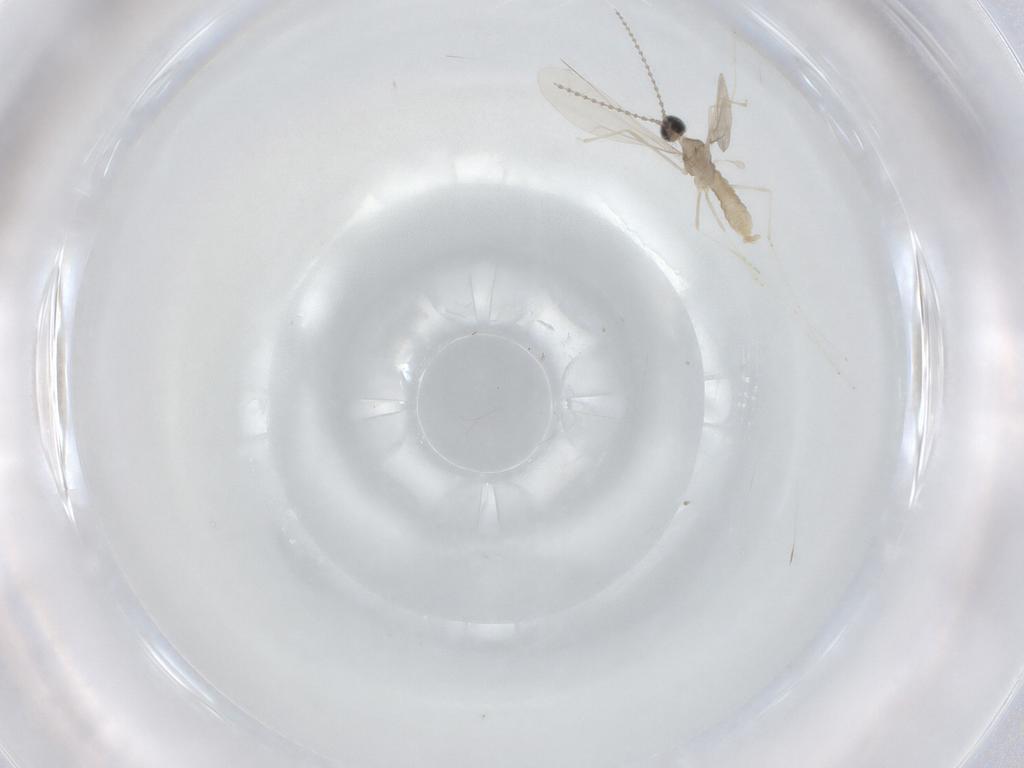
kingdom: Animalia
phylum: Arthropoda
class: Insecta
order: Diptera
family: Cecidomyiidae
